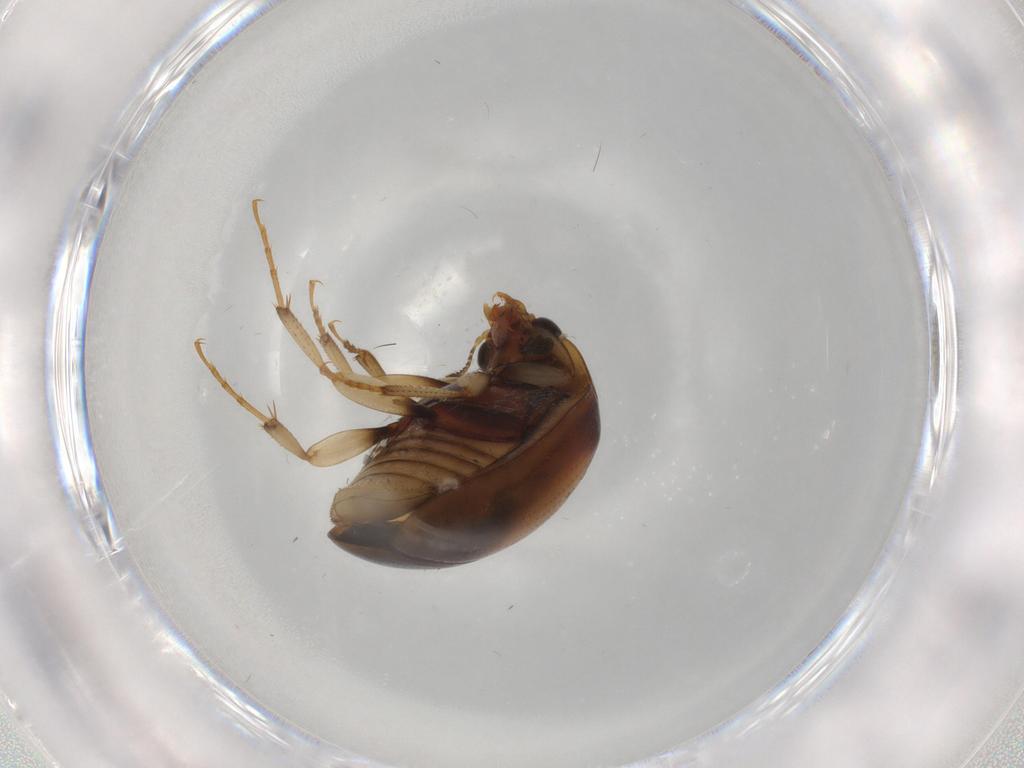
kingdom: Animalia
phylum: Arthropoda
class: Insecta
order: Coleoptera
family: Nitidulidae
